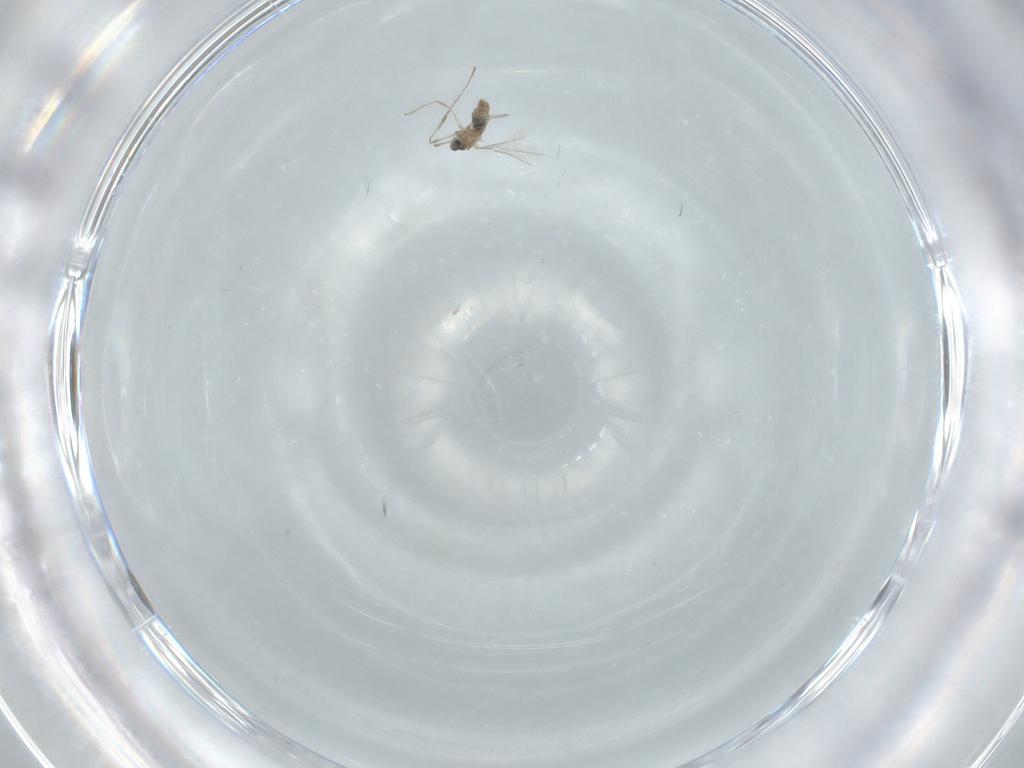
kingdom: Animalia
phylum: Arthropoda
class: Insecta
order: Diptera
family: Cecidomyiidae
